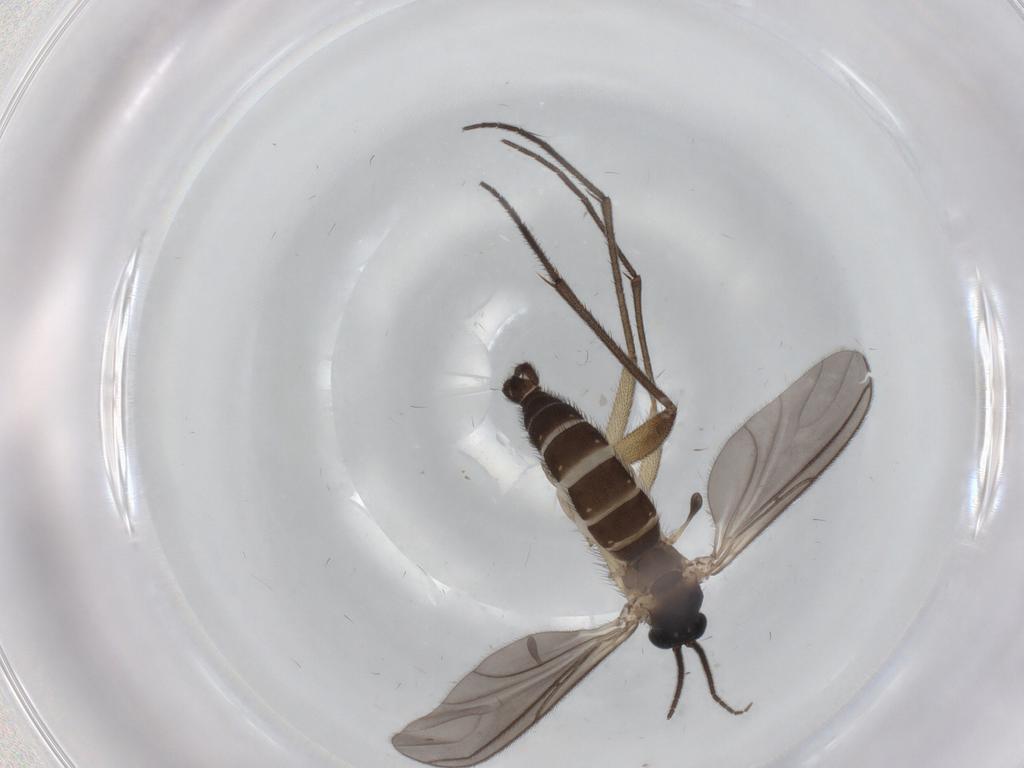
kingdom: Animalia
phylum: Arthropoda
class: Insecta
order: Diptera
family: Sciaridae
